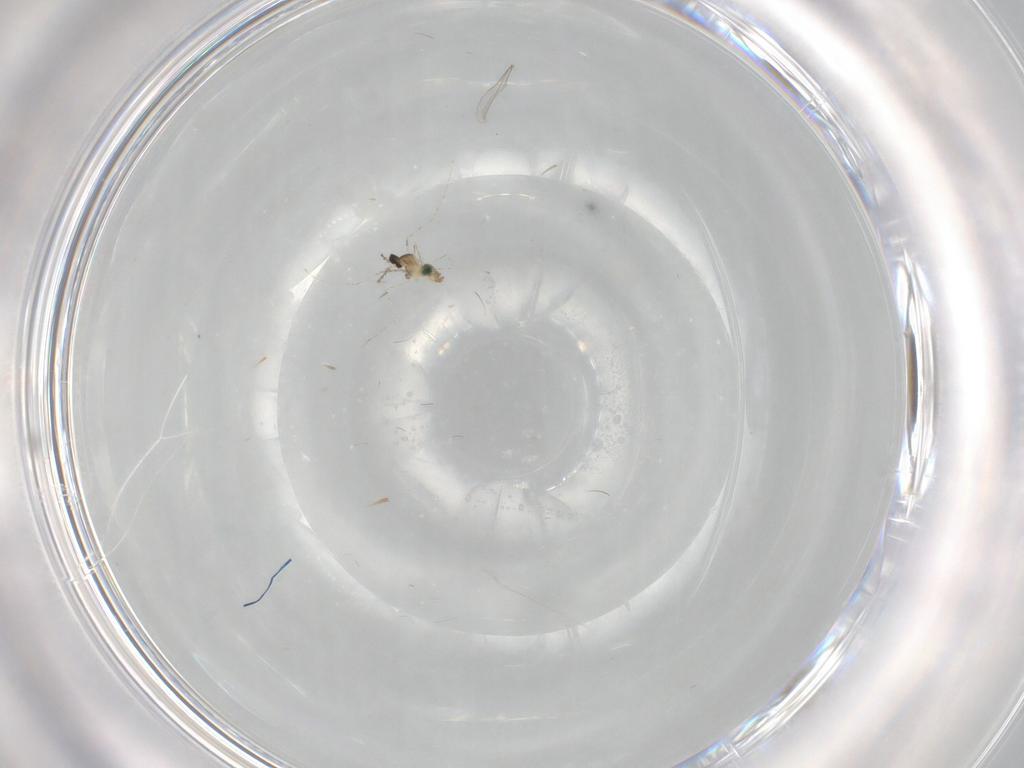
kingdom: Animalia
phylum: Arthropoda
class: Insecta
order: Diptera
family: Cecidomyiidae
